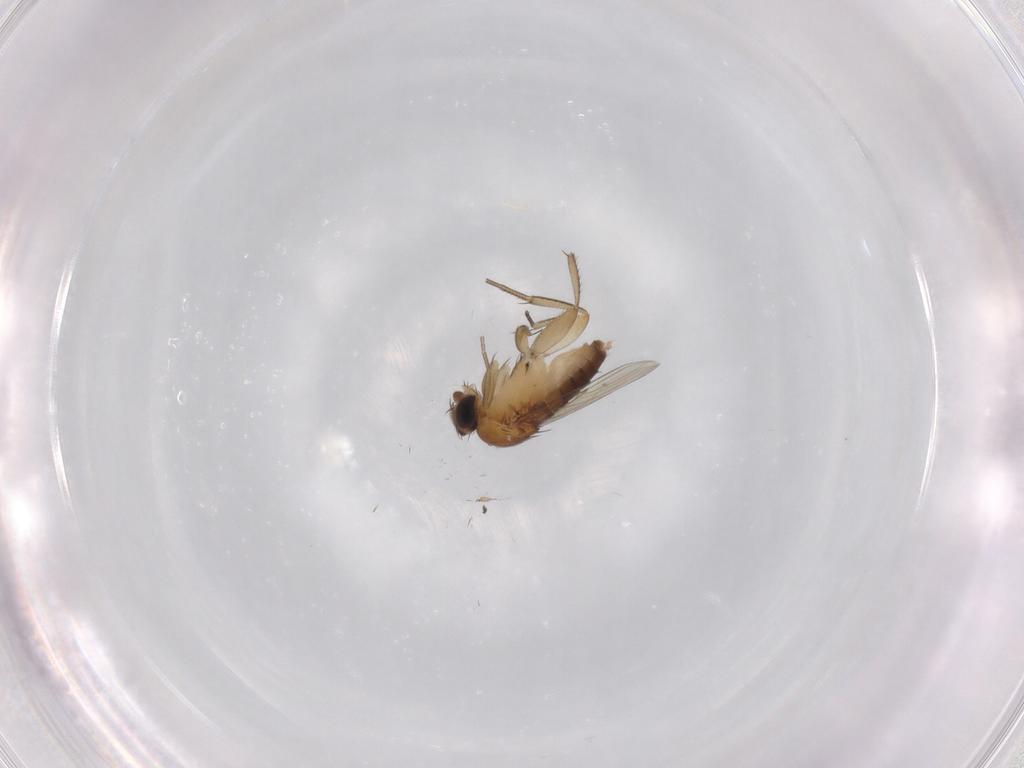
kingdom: Animalia
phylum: Arthropoda
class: Insecta
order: Diptera
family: Phoridae
